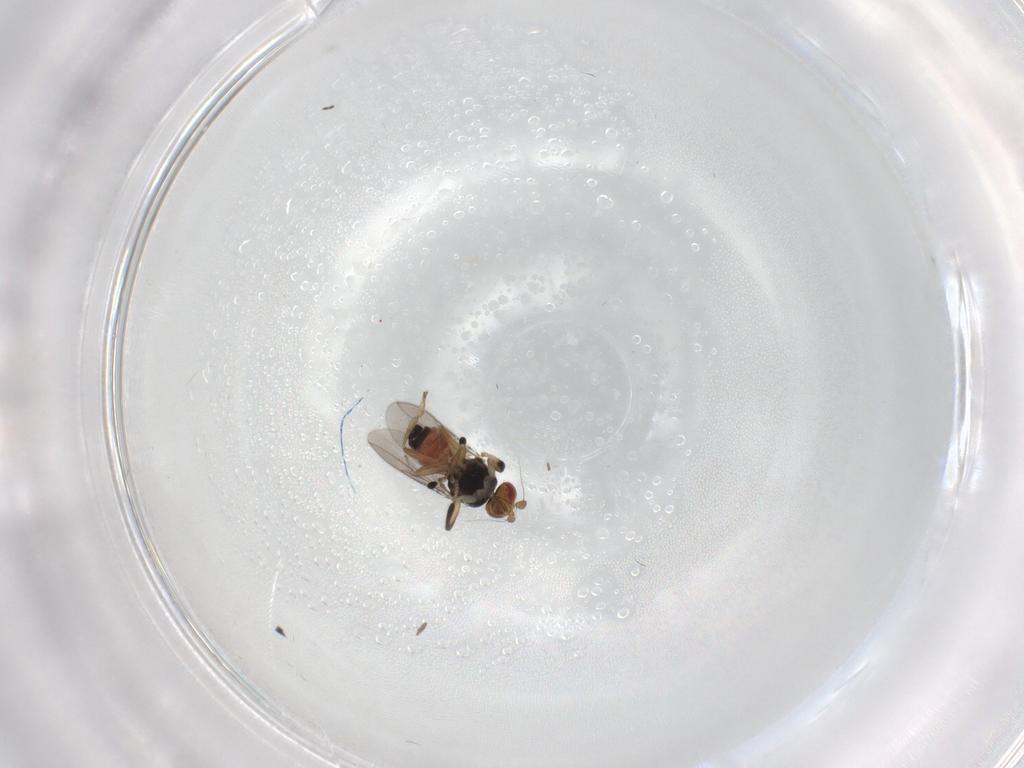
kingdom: Animalia
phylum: Arthropoda
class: Insecta
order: Diptera
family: Sphaeroceridae
